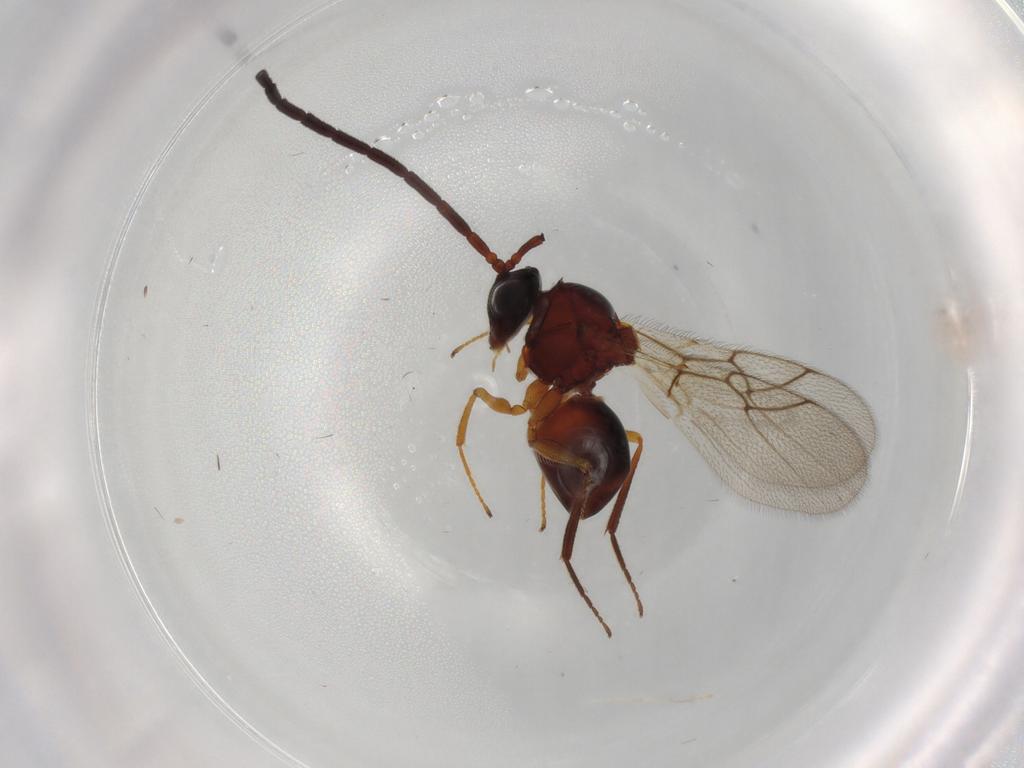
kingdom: Animalia
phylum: Arthropoda
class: Insecta
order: Hymenoptera
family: Figitidae
